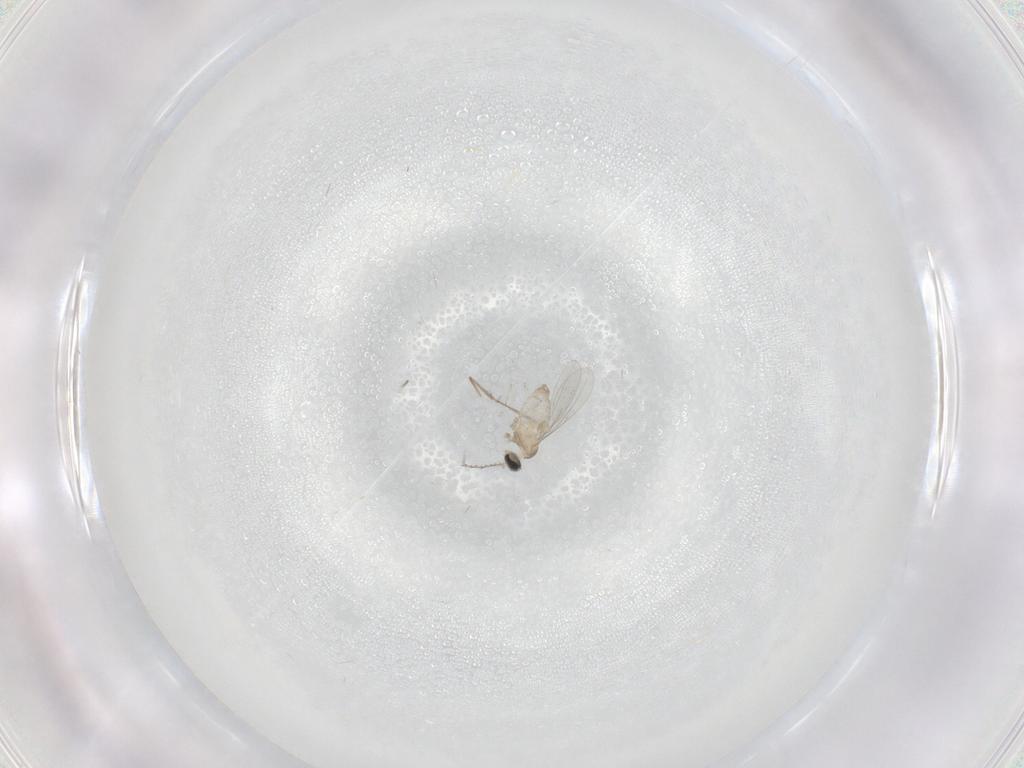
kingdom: Animalia
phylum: Arthropoda
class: Insecta
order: Diptera
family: Cecidomyiidae
